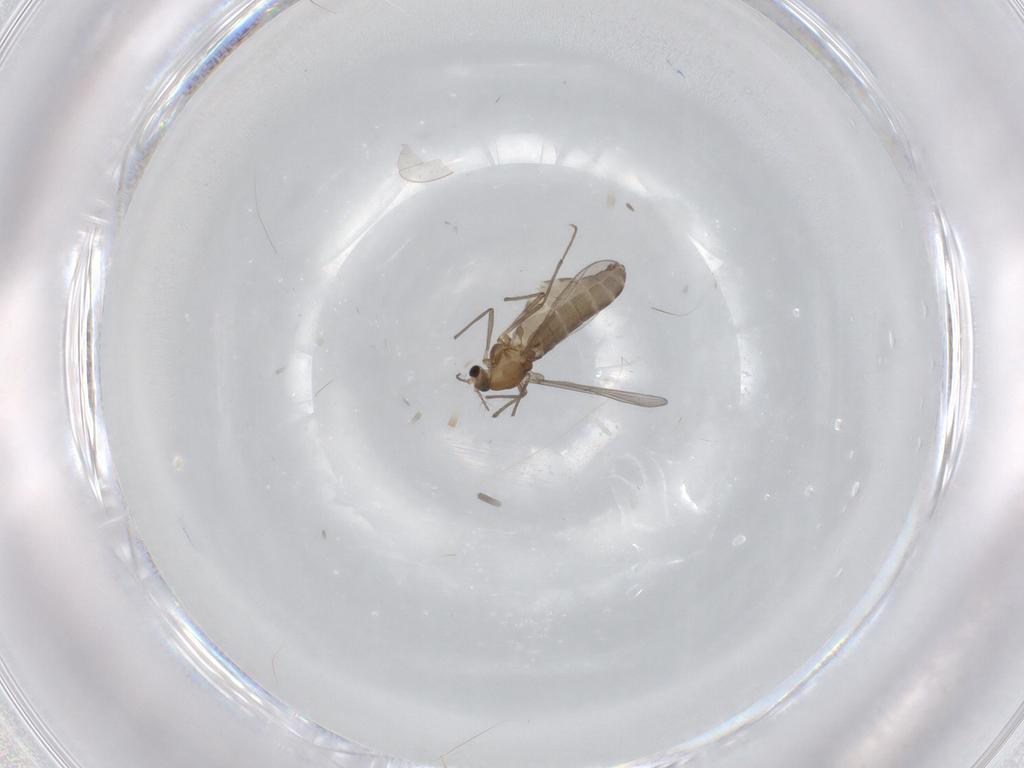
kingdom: Animalia
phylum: Arthropoda
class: Insecta
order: Diptera
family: Chironomidae
